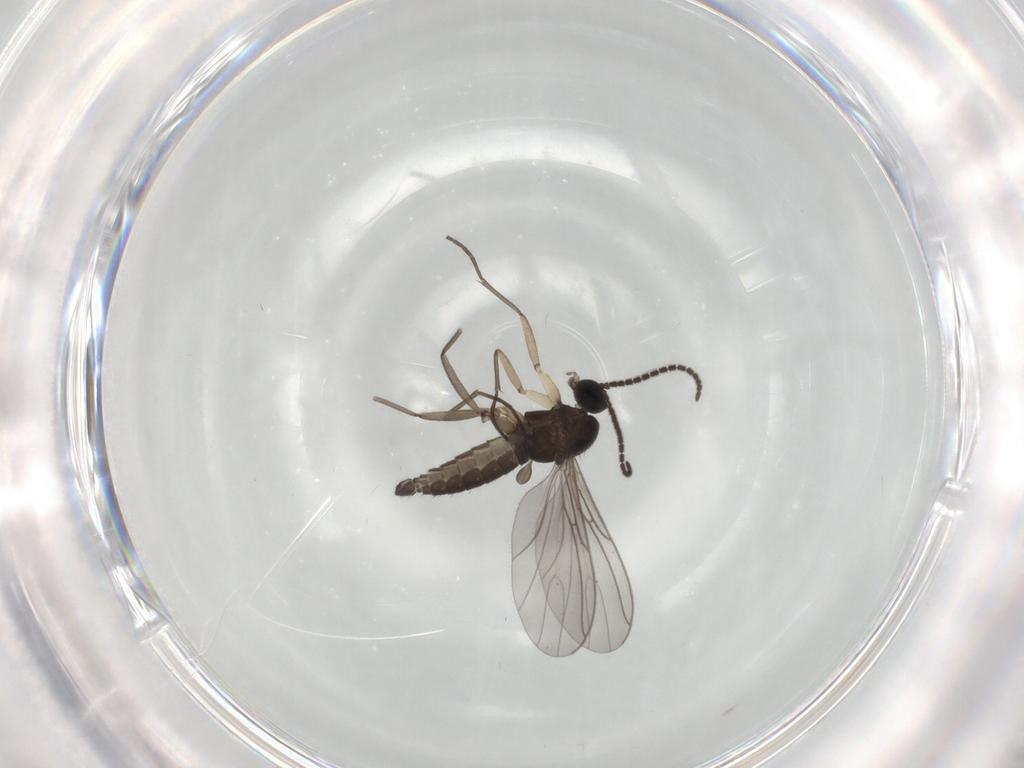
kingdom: Animalia
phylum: Arthropoda
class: Insecta
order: Diptera
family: Sciaridae
